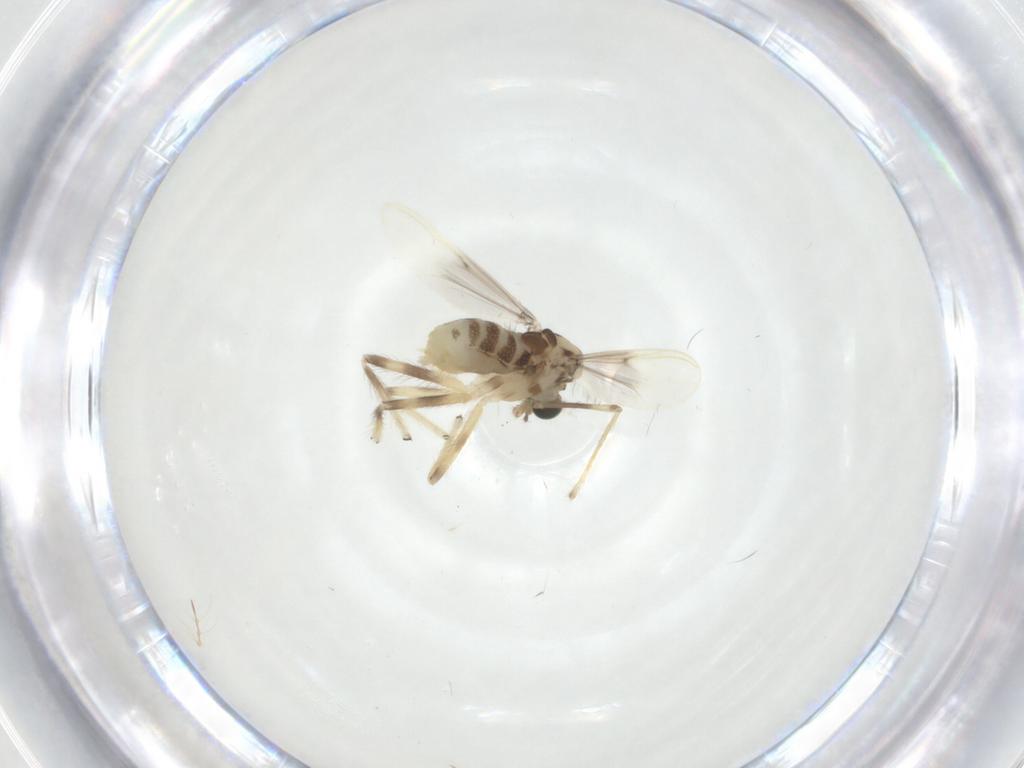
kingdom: Animalia
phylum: Arthropoda
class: Insecta
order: Diptera
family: Chironomidae
